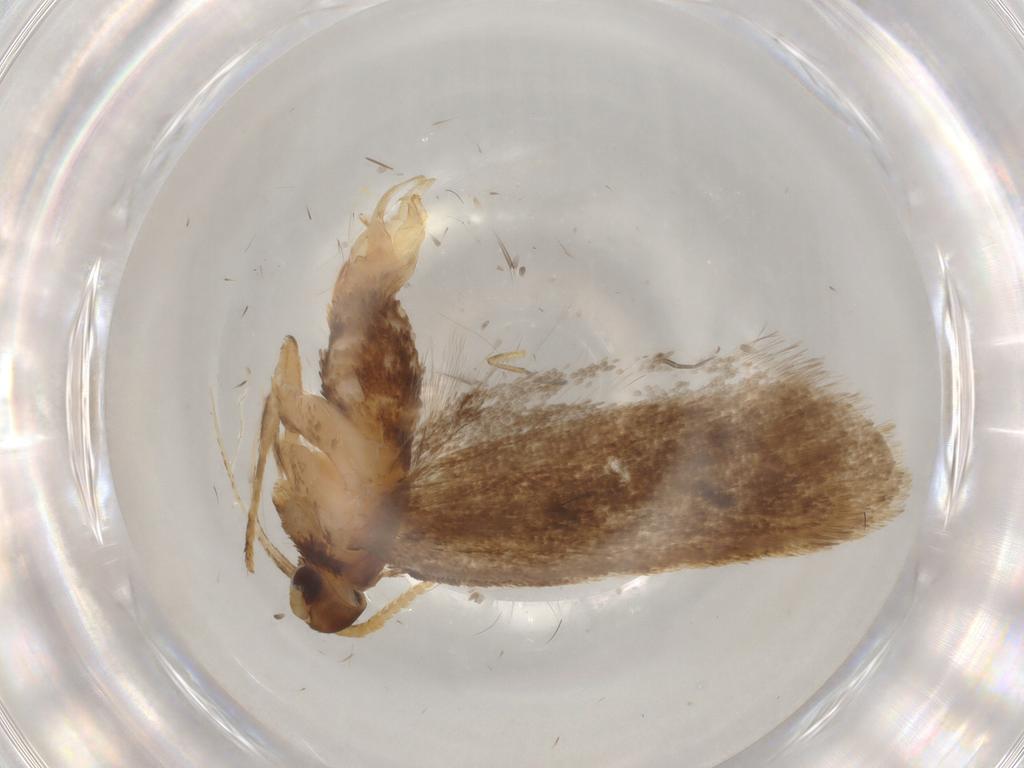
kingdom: Animalia
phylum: Arthropoda
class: Insecta
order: Lepidoptera
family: Lecithoceridae
